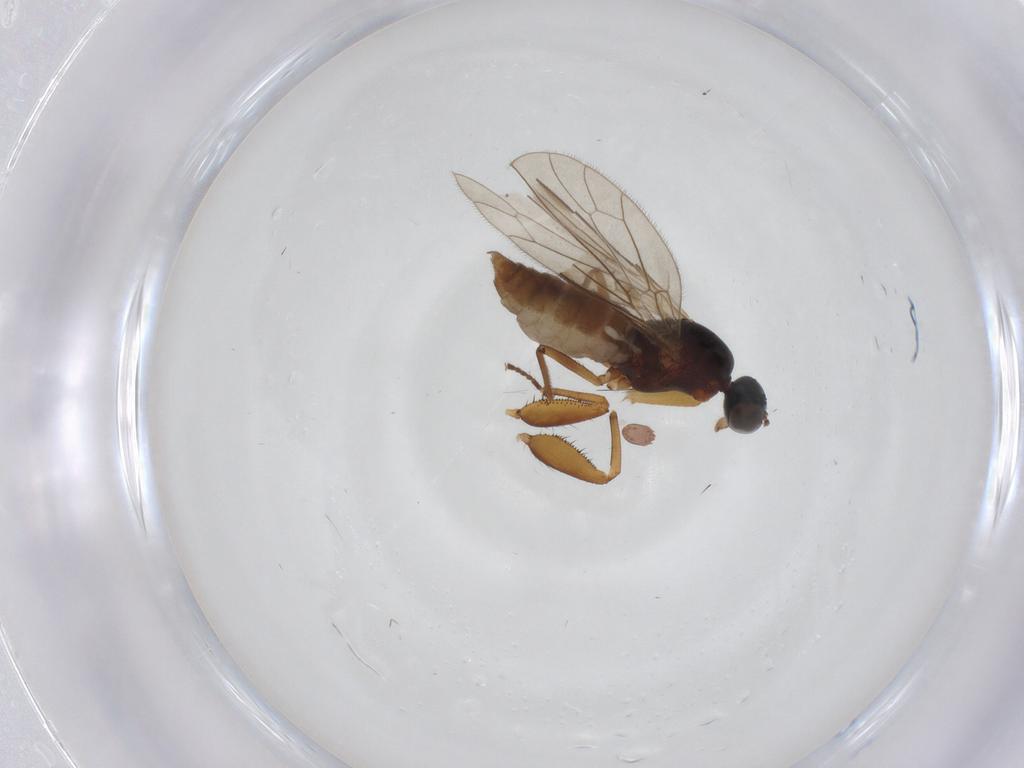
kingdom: Animalia
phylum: Arthropoda
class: Insecta
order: Diptera
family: Empididae
